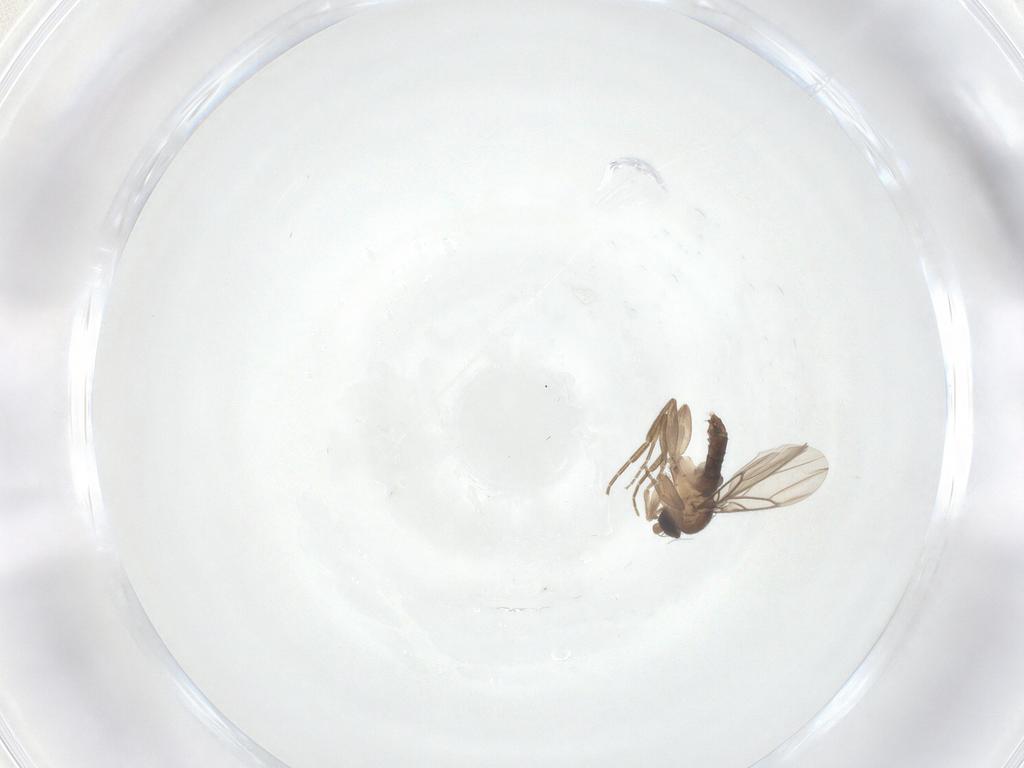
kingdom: Animalia
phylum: Arthropoda
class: Insecta
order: Diptera
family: Phoridae
